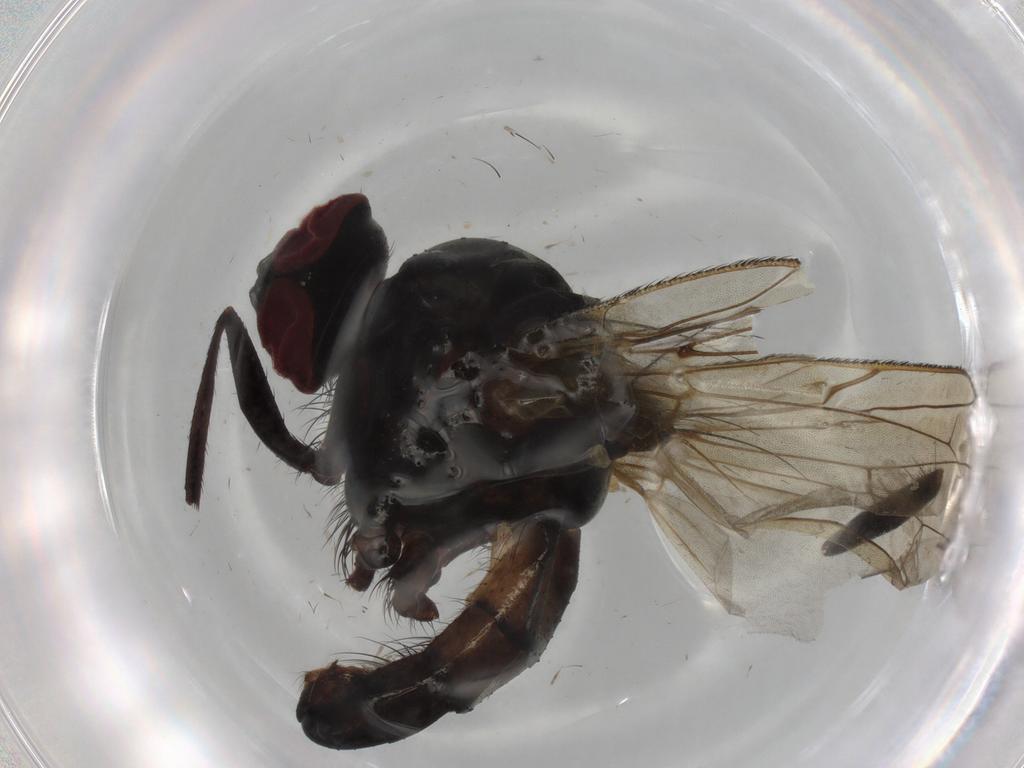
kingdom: Animalia
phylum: Arthropoda
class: Insecta
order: Diptera
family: Anthomyiidae
